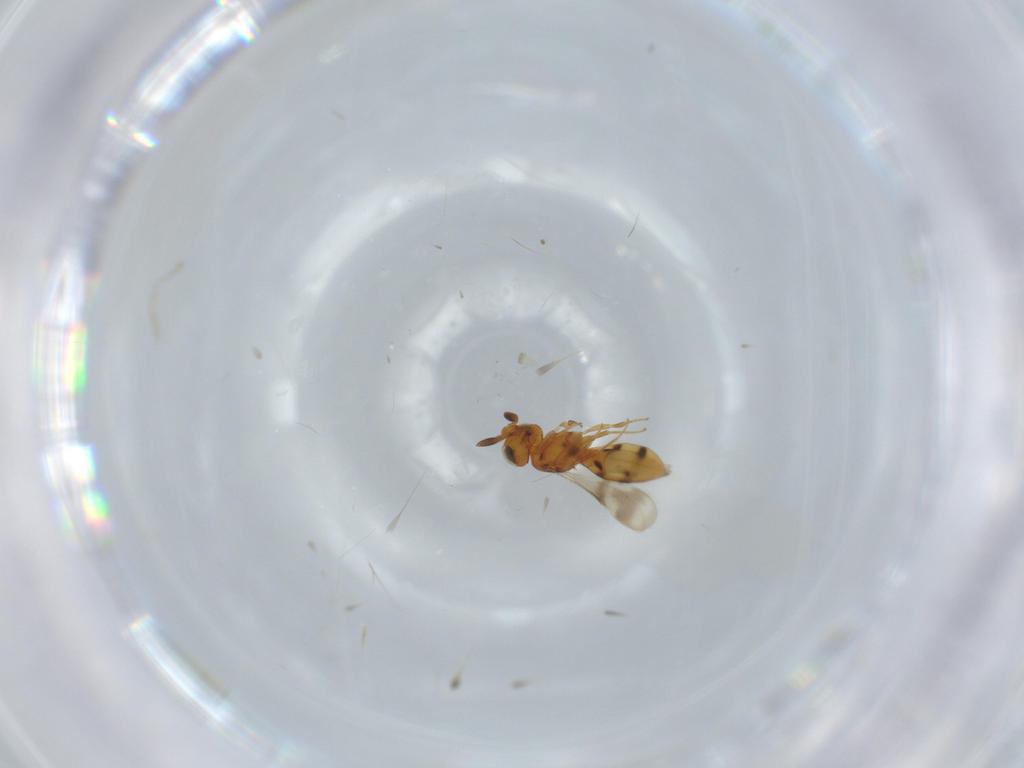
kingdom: Animalia
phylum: Arthropoda
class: Insecta
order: Hymenoptera
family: Scelionidae
